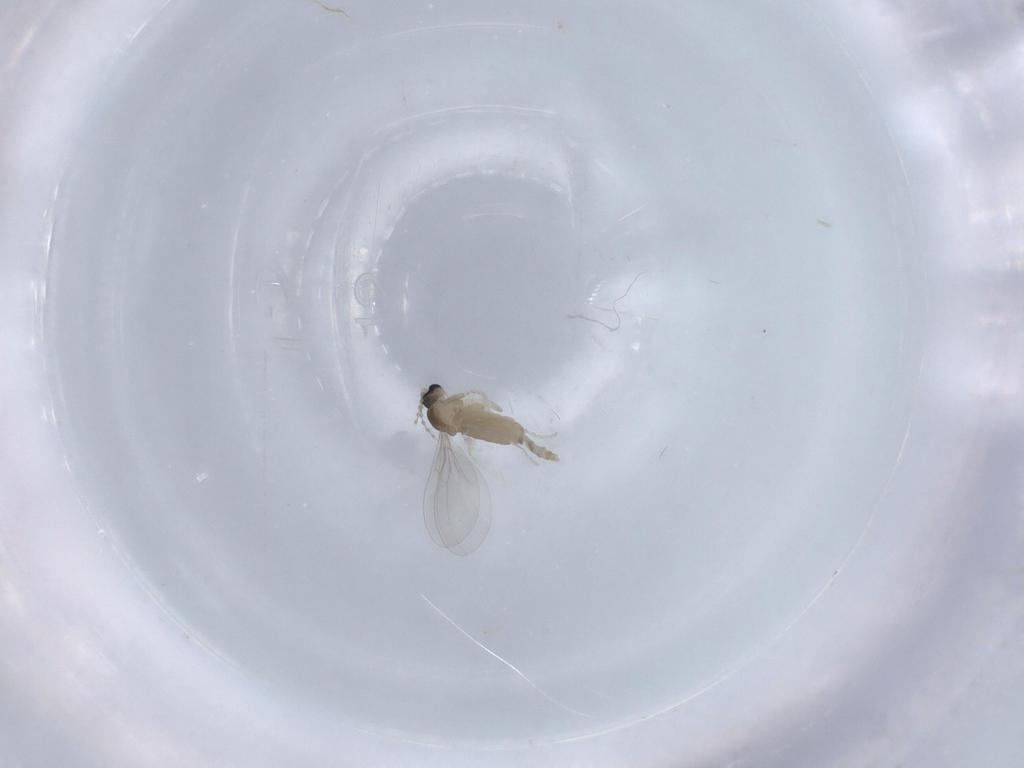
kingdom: Animalia
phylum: Arthropoda
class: Insecta
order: Diptera
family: Cecidomyiidae
